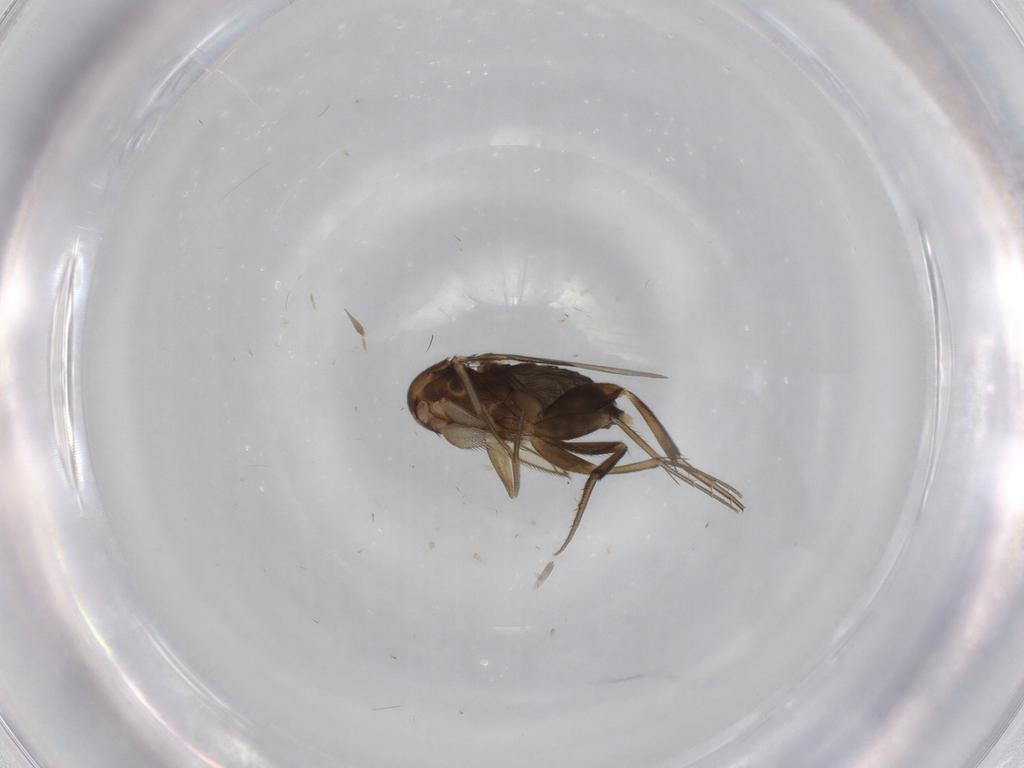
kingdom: Animalia
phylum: Arthropoda
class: Insecta
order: Diptera
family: Phoridae
